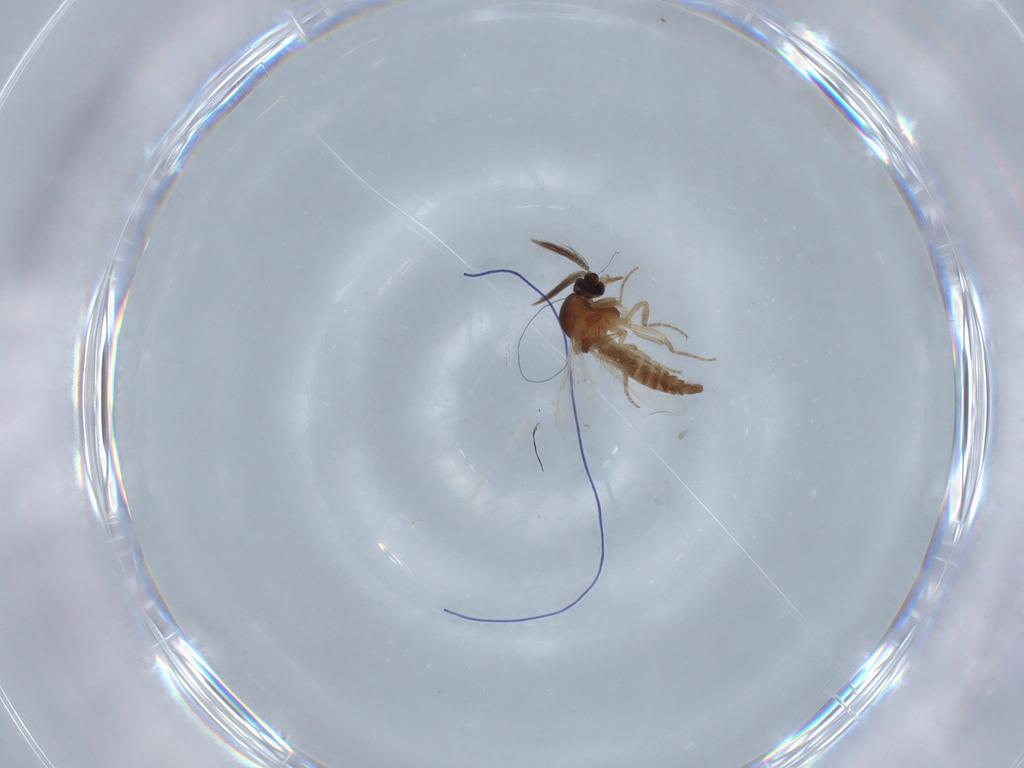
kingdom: Animalia
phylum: Arthropoda
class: Insecta
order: Diptera
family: Ceratopogonidae
